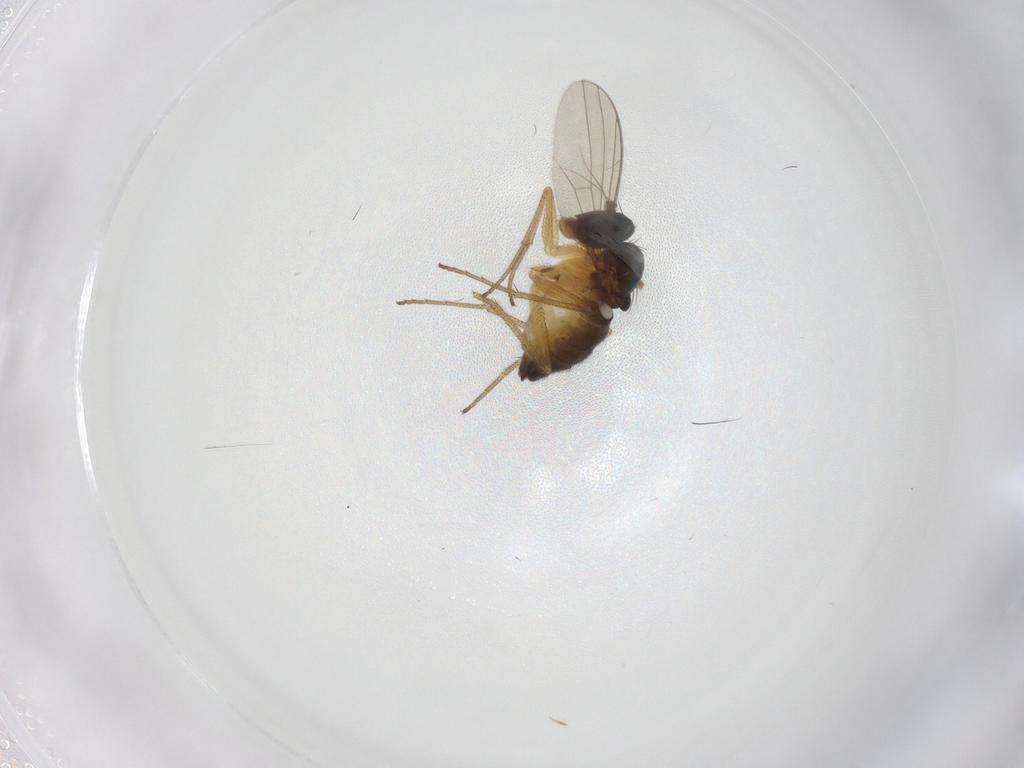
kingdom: Animalia
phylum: Arthropoda
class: Insecta
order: Diptera
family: Dolichopodidae
